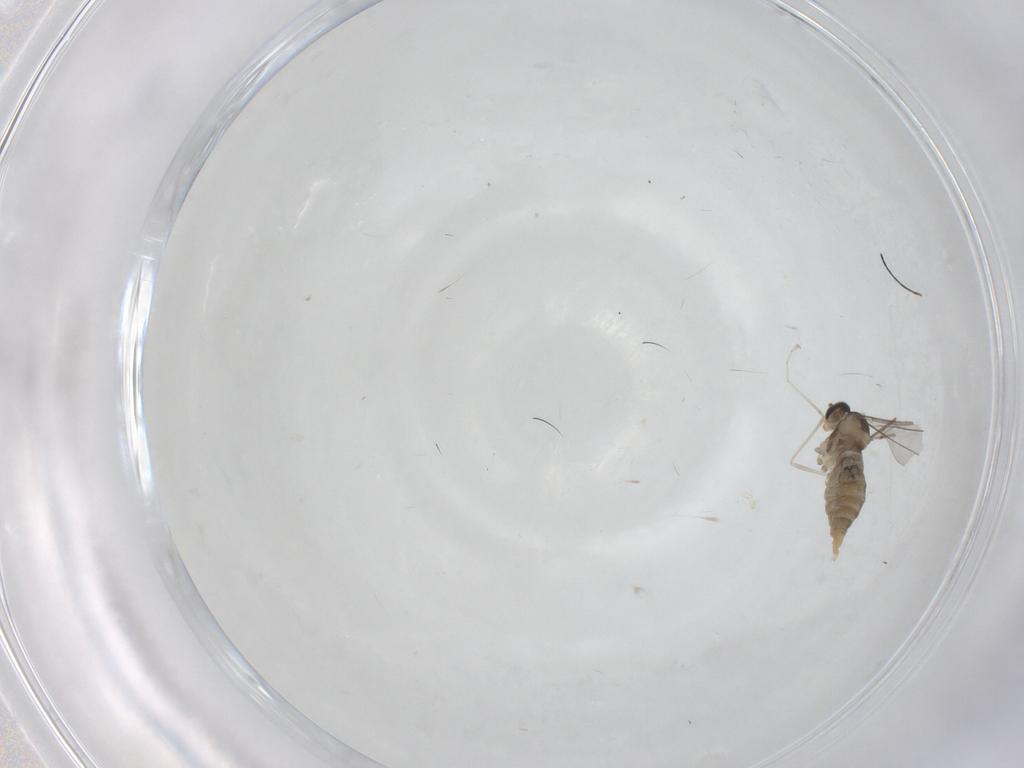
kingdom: Animalia
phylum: Arthropoda
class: Insecta
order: Diptera
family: Cecidomyiidae
